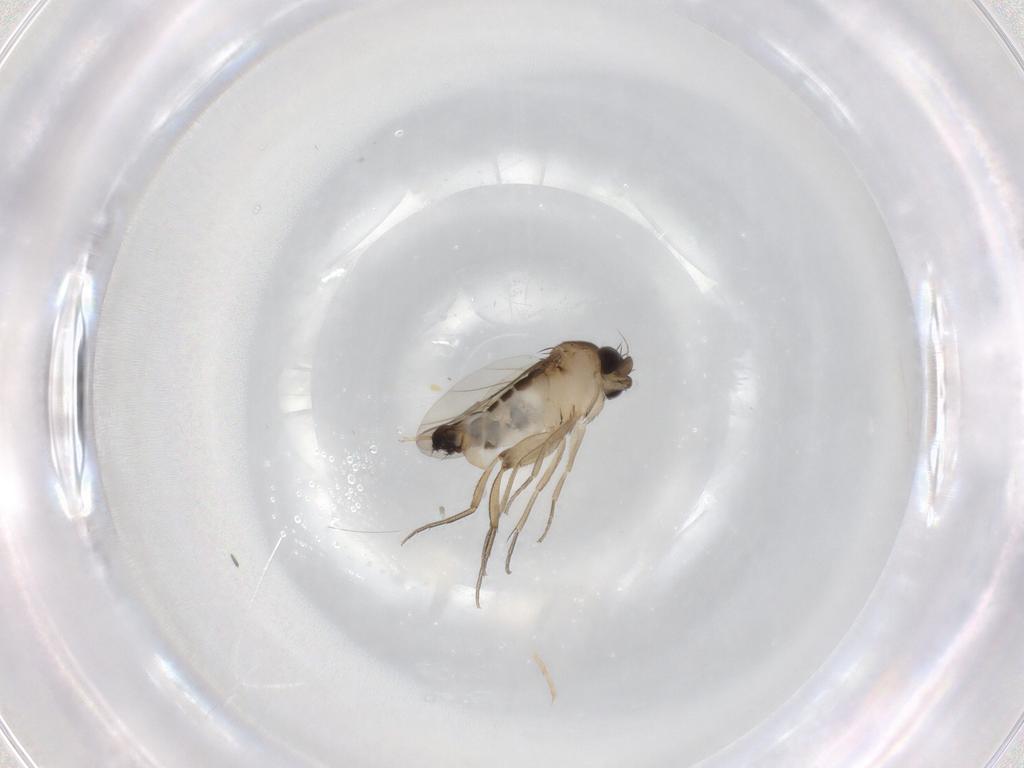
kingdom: Animalia
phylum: Arthropoda
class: Insecta
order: Diptera
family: Phoridae
